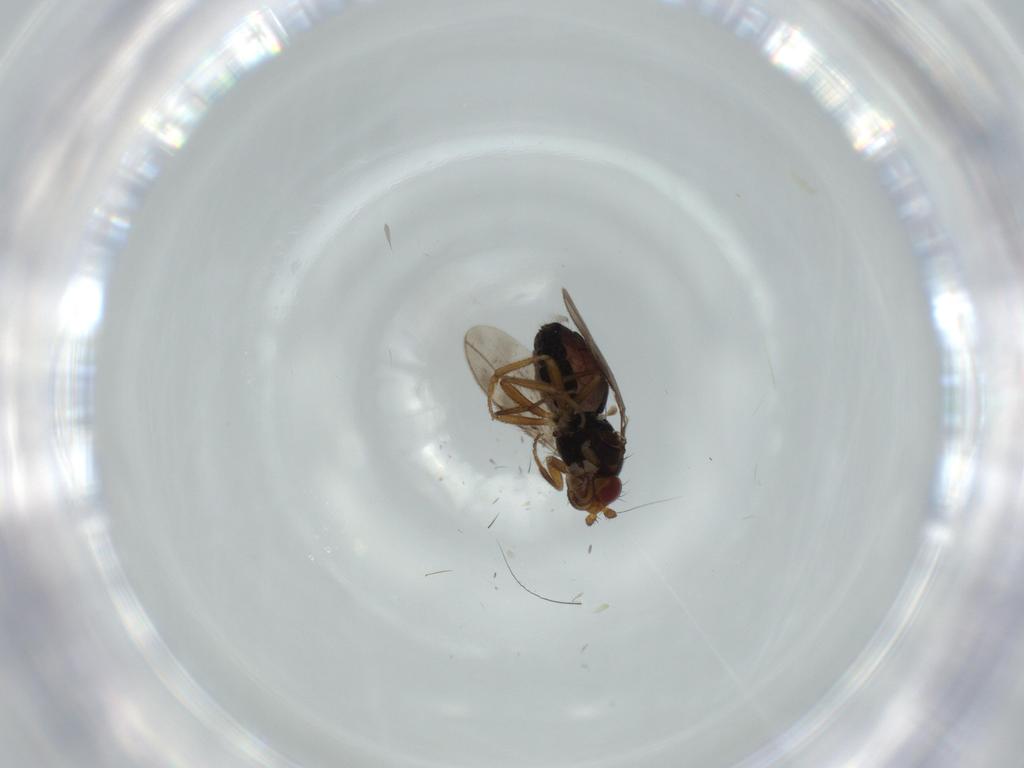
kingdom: Animalia
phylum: Arthropoda
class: Insecta
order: Diptera
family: Sphaeroceridae
